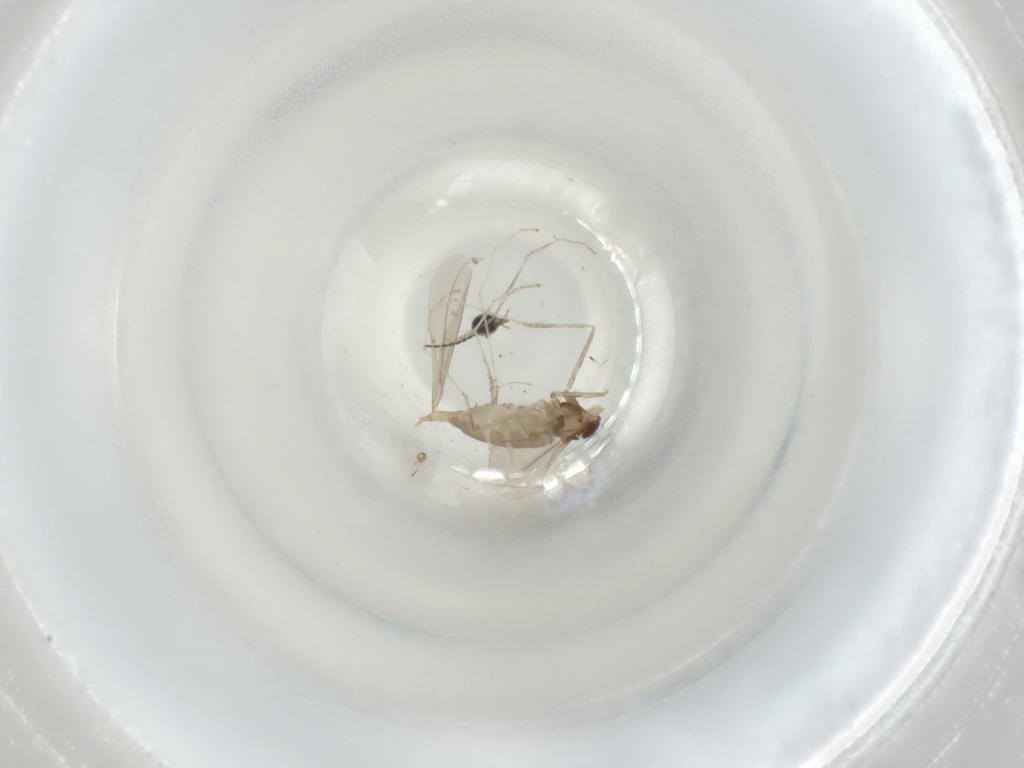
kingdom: Animalia
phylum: Arthropoda
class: Insecta
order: Diptera
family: Cecidomyiidae
